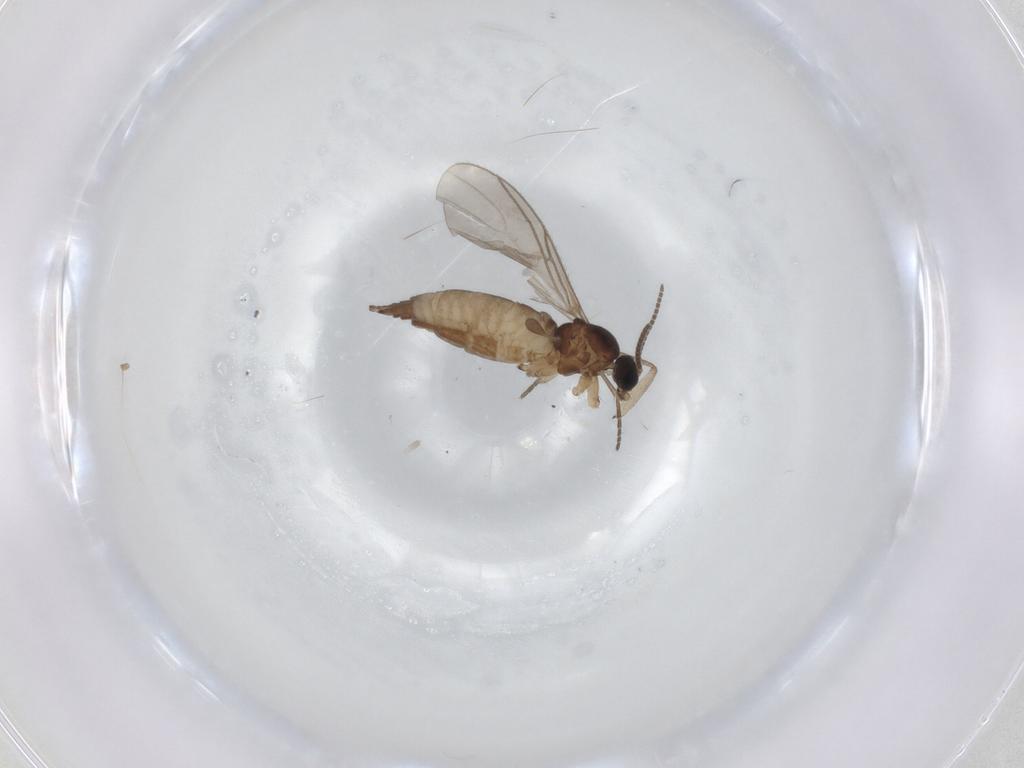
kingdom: Animalia
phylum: Arthropoda
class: Insecta
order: Diptera
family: Sciaridae
